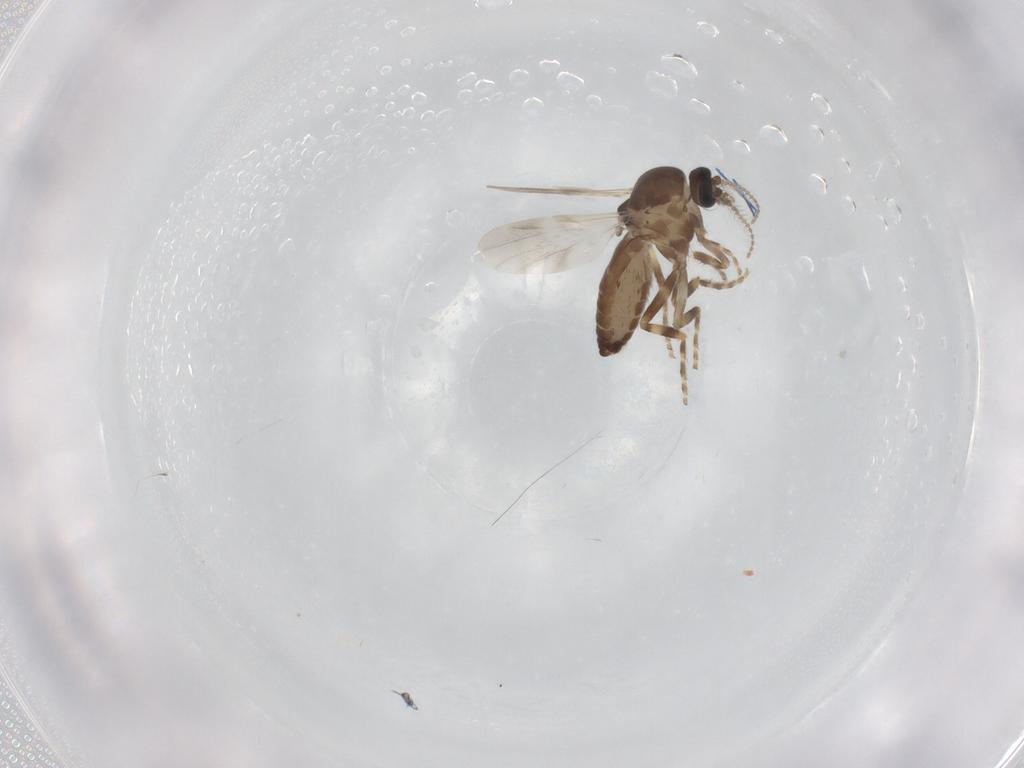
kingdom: Animalia
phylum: Arthropoda
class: Insecta
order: Diptera
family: Ceratopogonidae
